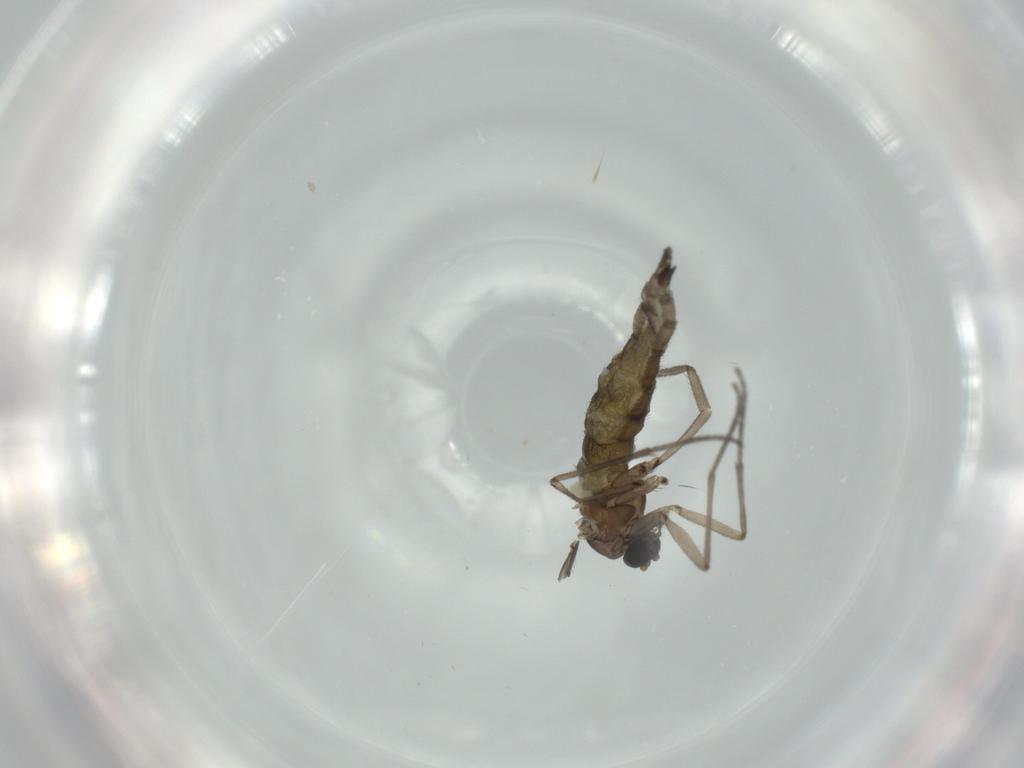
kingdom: Animalia
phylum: Arthropoda
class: Insecta
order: Diptera
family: Sciaridae
